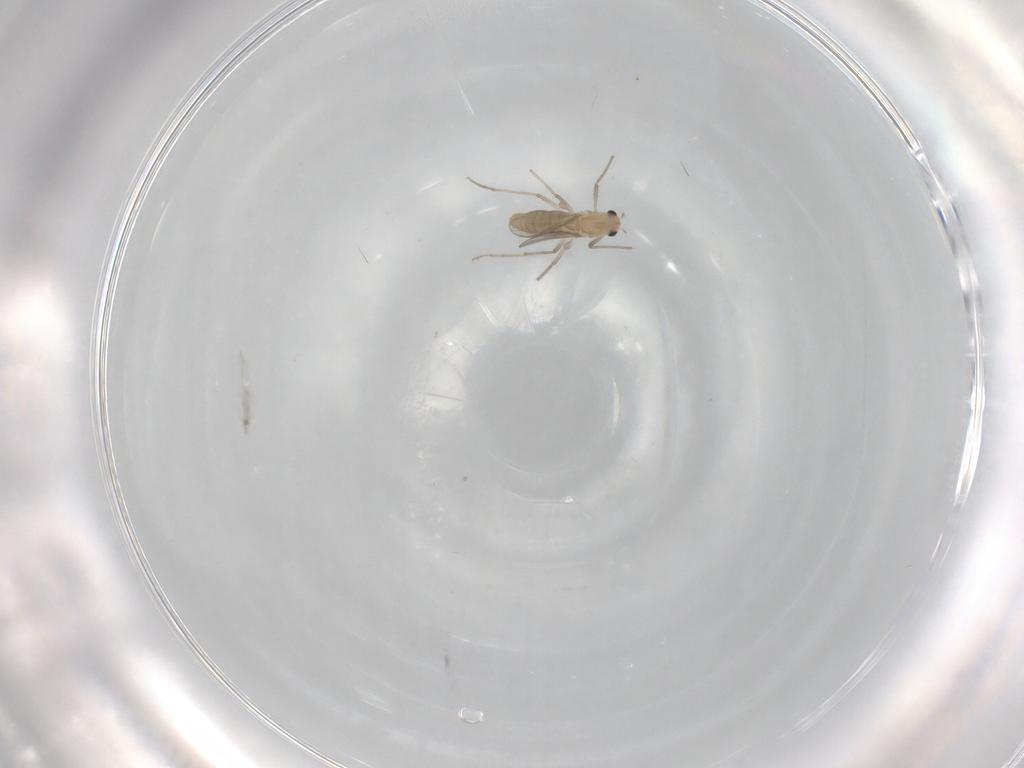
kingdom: Animalia
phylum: Arthropoda
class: Insecta
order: Diptera
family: Chironomidae
